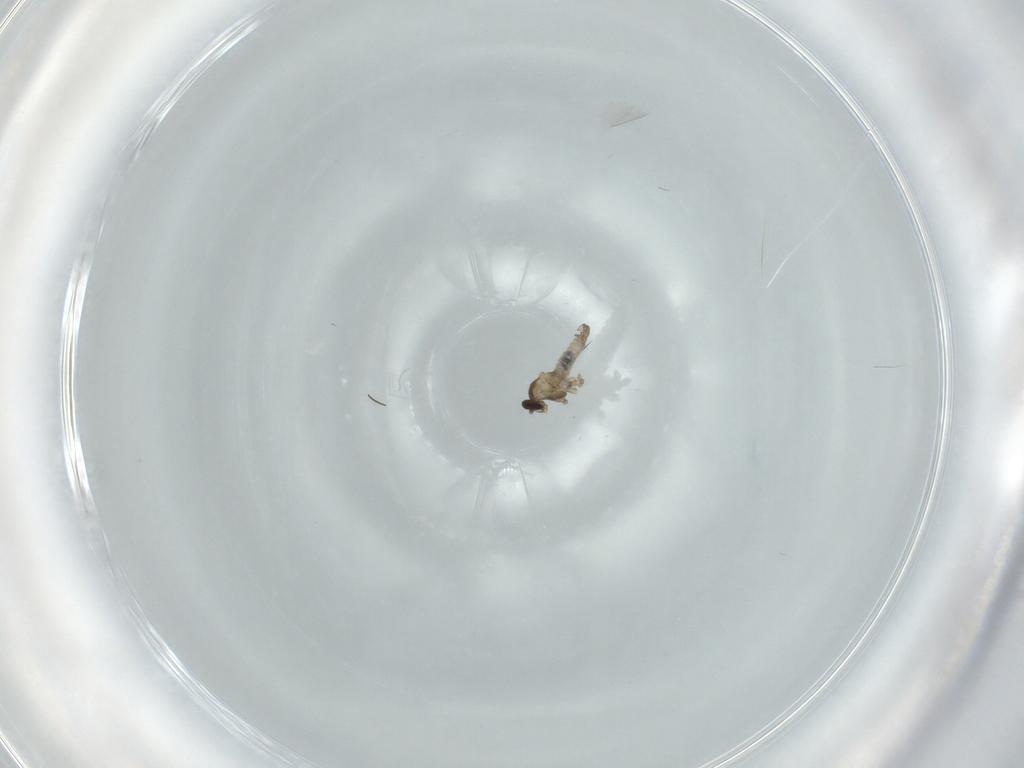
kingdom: Animalia
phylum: Arthropoda
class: Insecta
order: Diptera
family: Cecidomyiidae
